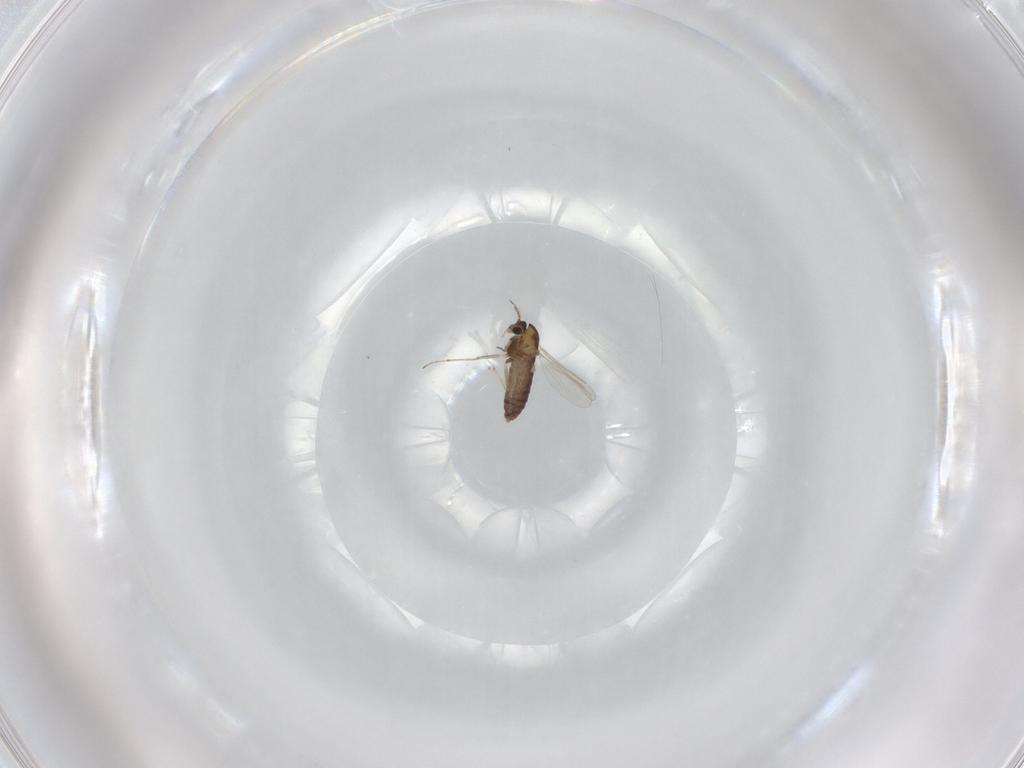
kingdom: Animalia
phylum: Arthropoda
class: Insecta
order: Diptera
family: Chironomidae
